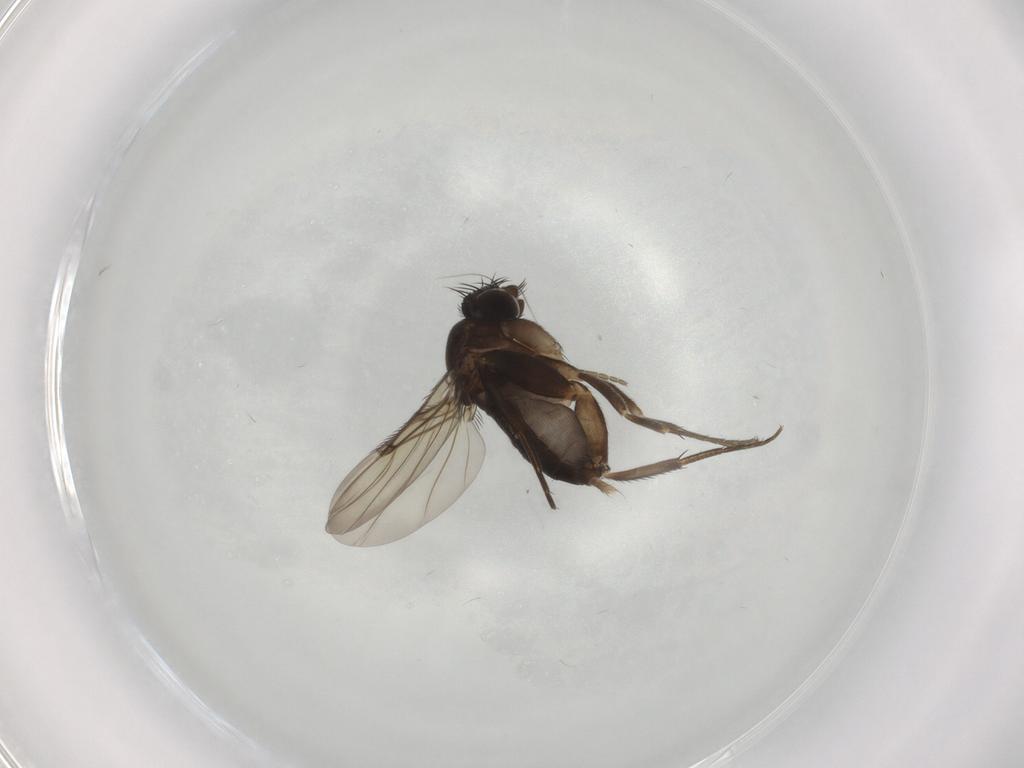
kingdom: Animalia
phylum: Arthropoda
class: Insecta
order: Diptera
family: Phoridae
